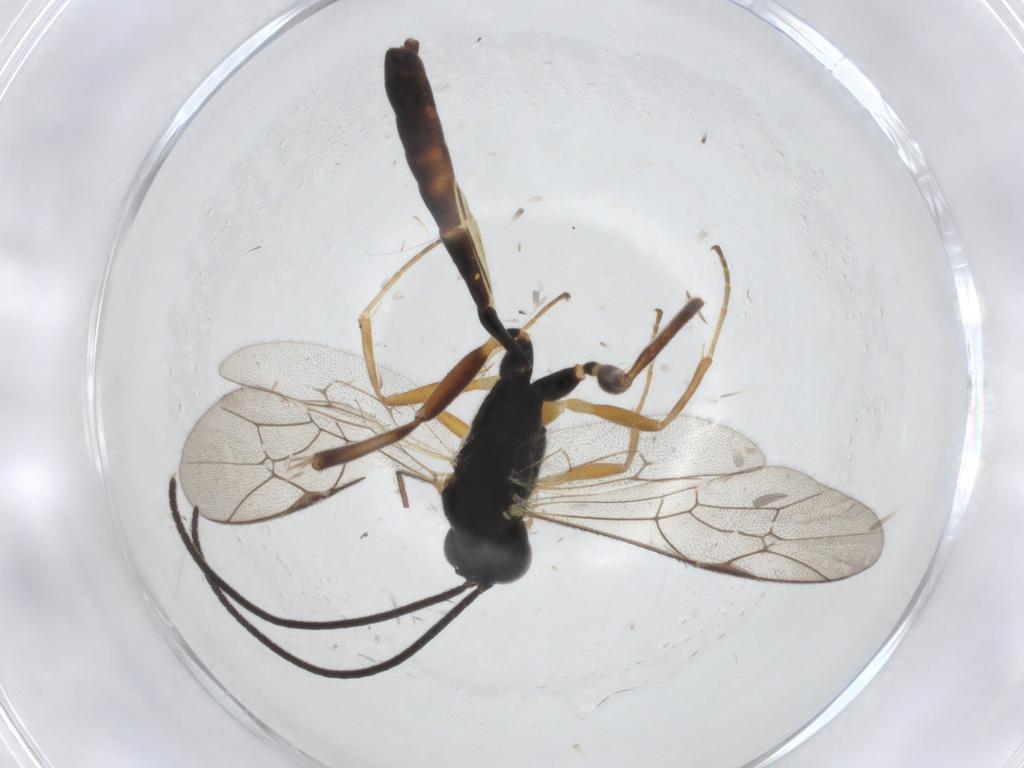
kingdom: Animalia
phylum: Arthropoda
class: Insecta
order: Hymenoptera
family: Ichneumonidae
